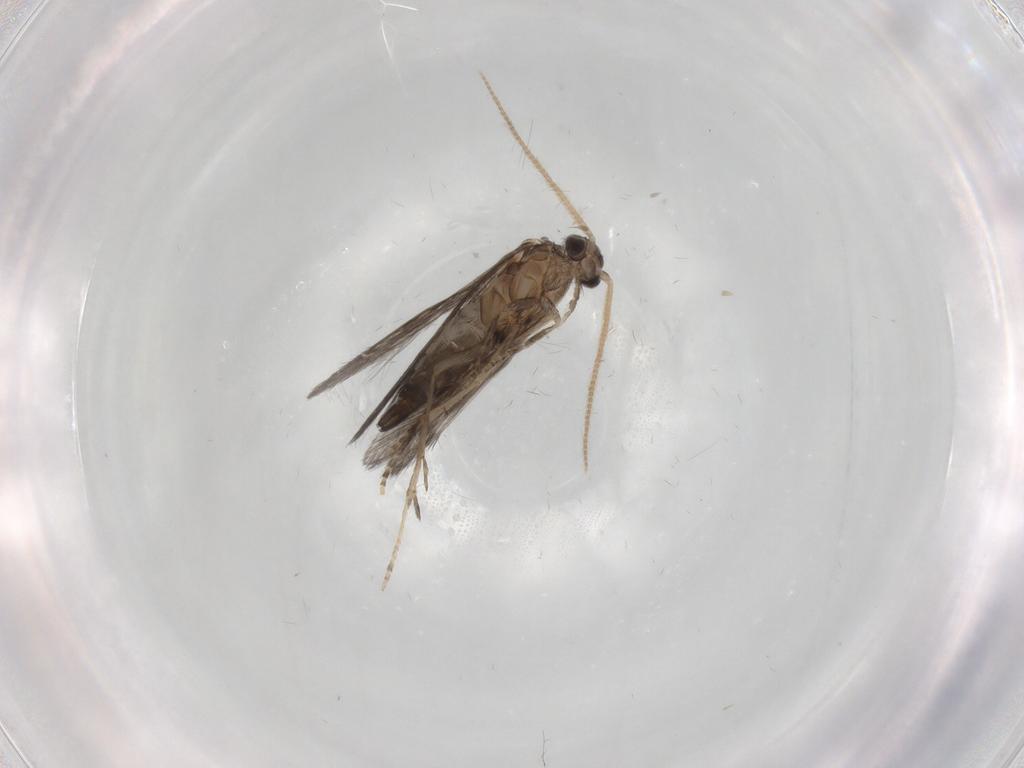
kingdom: Animalia
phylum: Arthropoda
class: Insecta
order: Trichoptera
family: Hydroptilidae
